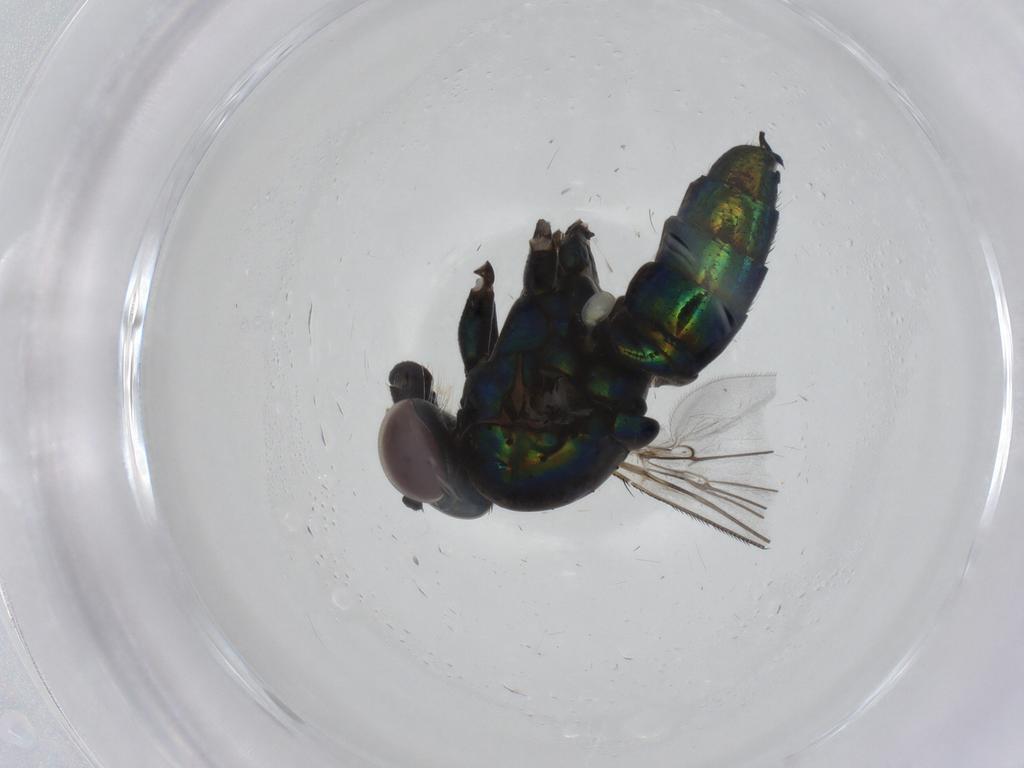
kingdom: Animalia
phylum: Arthropoda
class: Insecta
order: Diptera
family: Dolichopodidae
